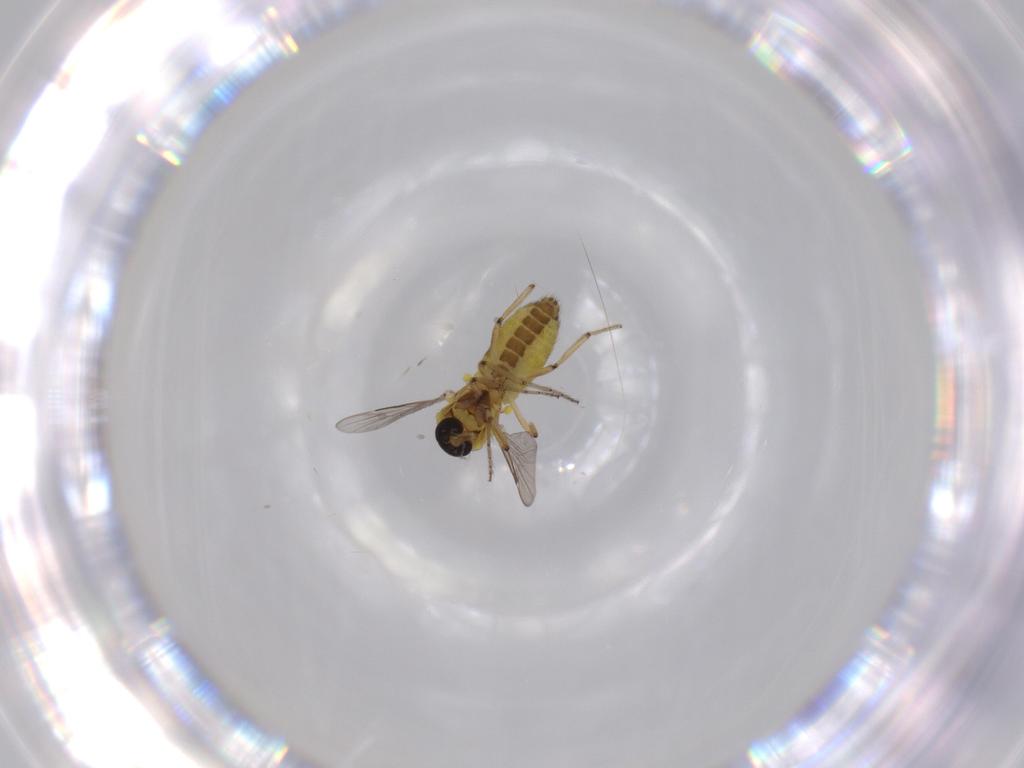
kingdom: Animalia
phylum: Arthropoda
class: Insecta
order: Diptera
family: Ceratopogonidae
